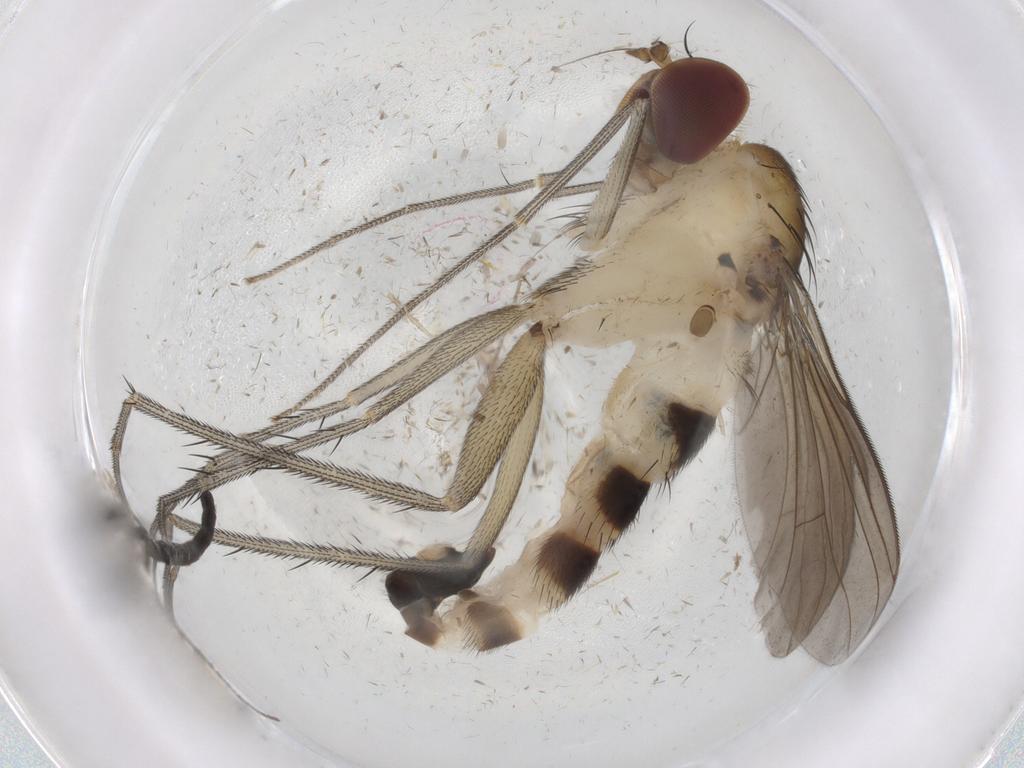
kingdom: Animalia
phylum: Arthropoda
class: Insecta
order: Diptera
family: Dolichopodidae
